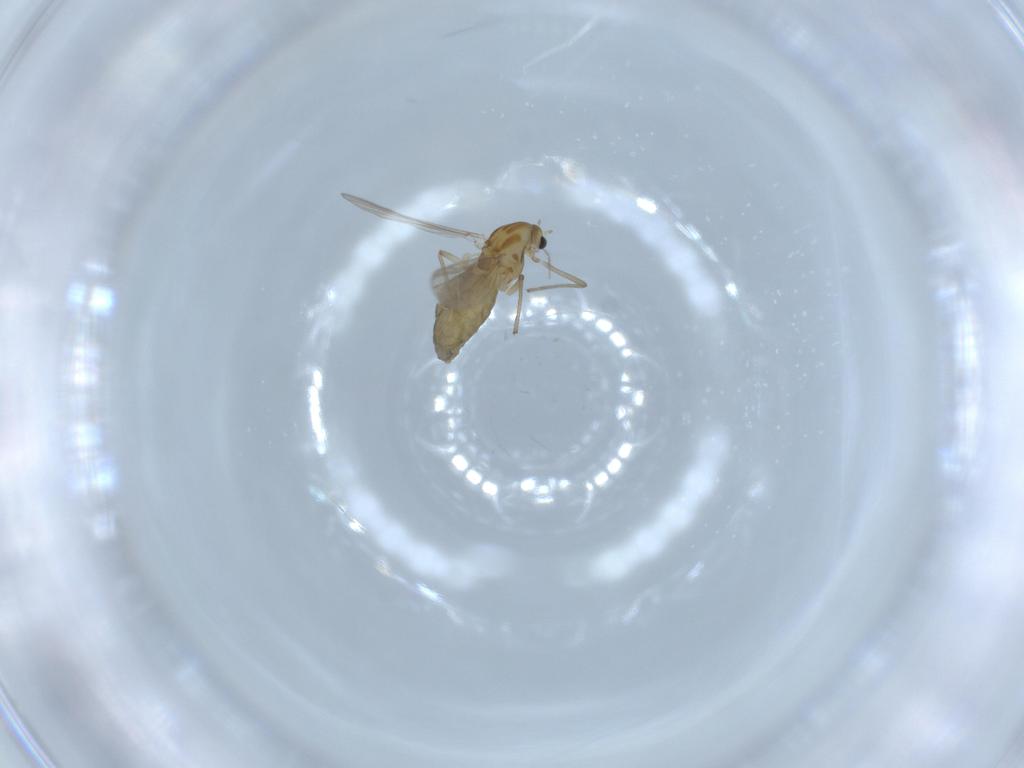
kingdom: Animalia
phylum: Arthropoda
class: Insecta
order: Diptera
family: Chironomidae
